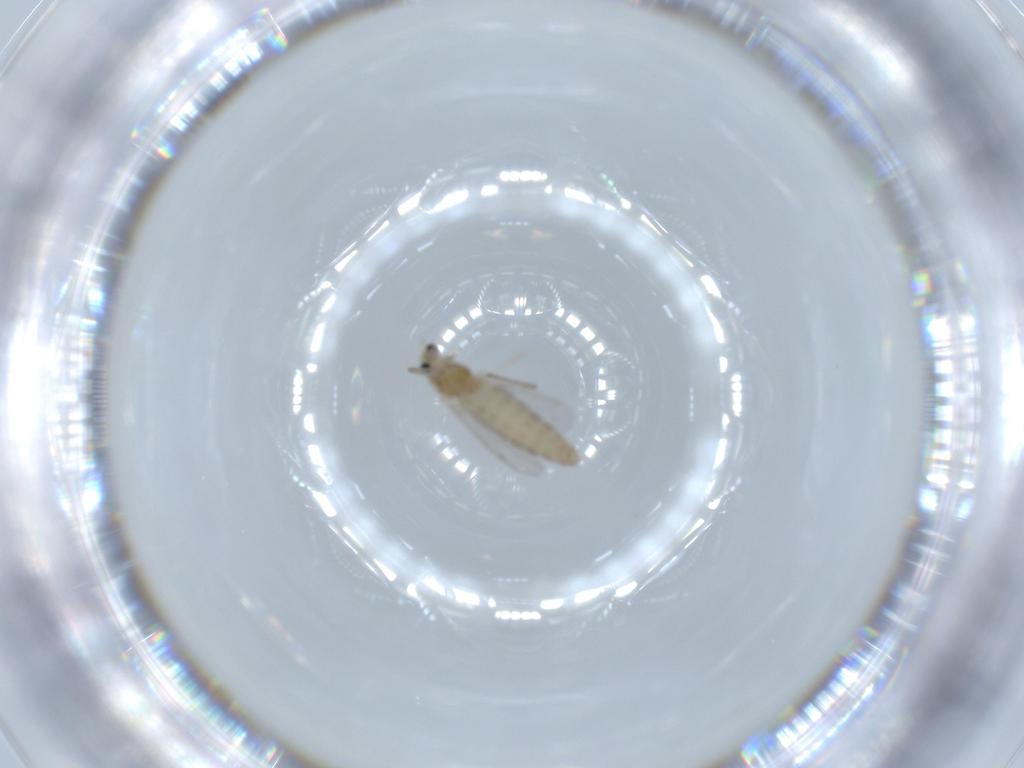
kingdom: Animalia
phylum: Arthropoda
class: Insecta
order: Diptera
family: Chironomidae
